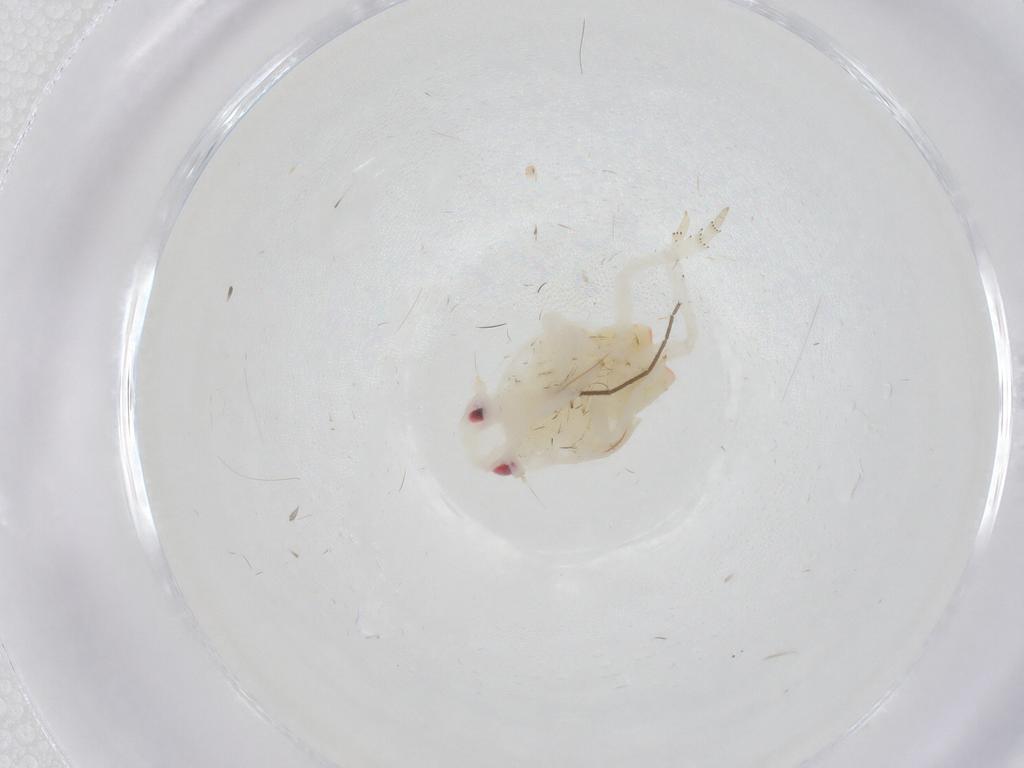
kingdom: Animalia
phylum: Arthropoda
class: Insecta
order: Hemiptera
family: Flatidae
